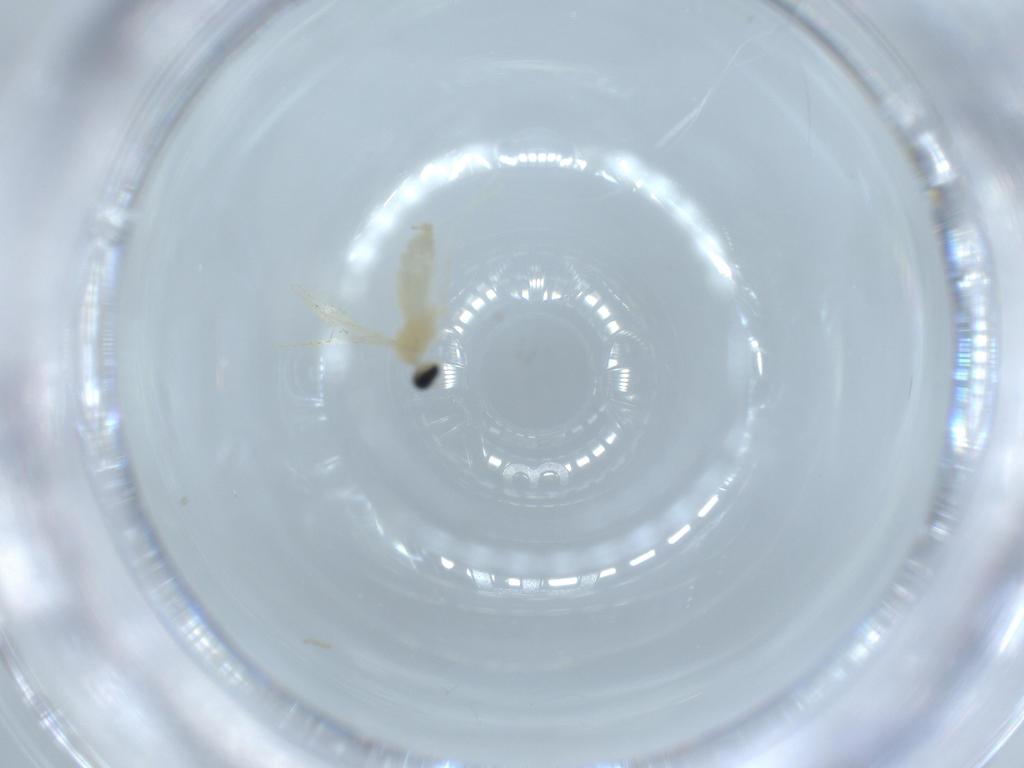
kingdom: Animalia
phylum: Arthropoda
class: Insecta
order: Diptera
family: Cecidomyiidae
